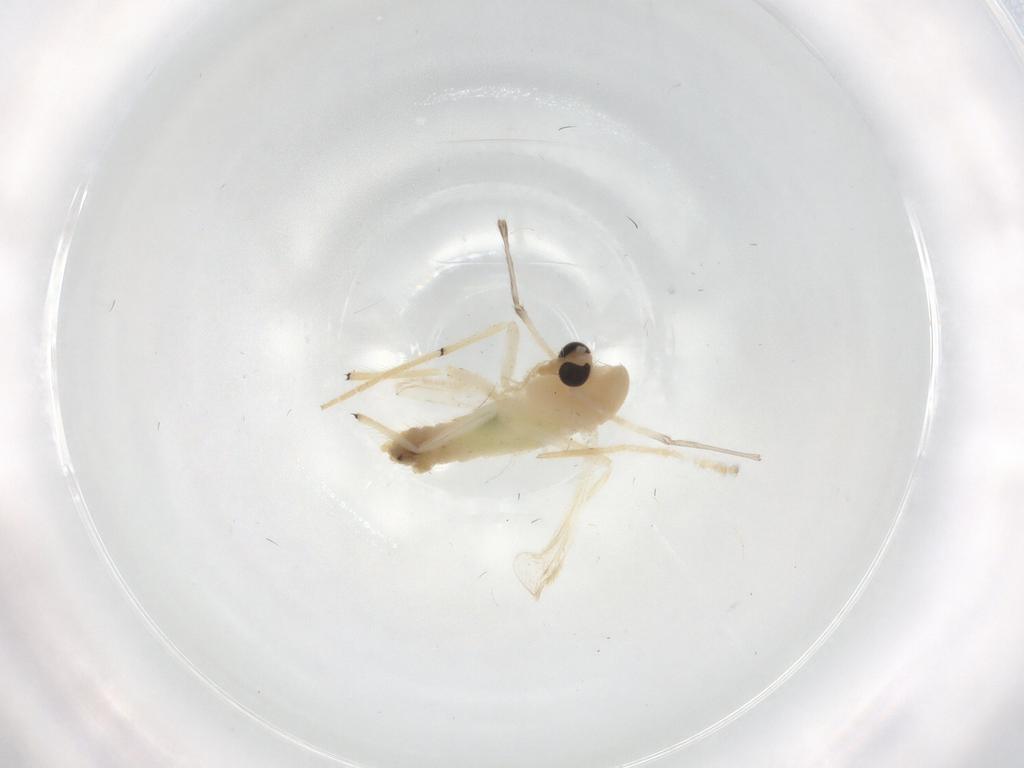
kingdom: Animalia
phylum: Arthropoda
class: Insecta
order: Diptera
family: Chironomidae
